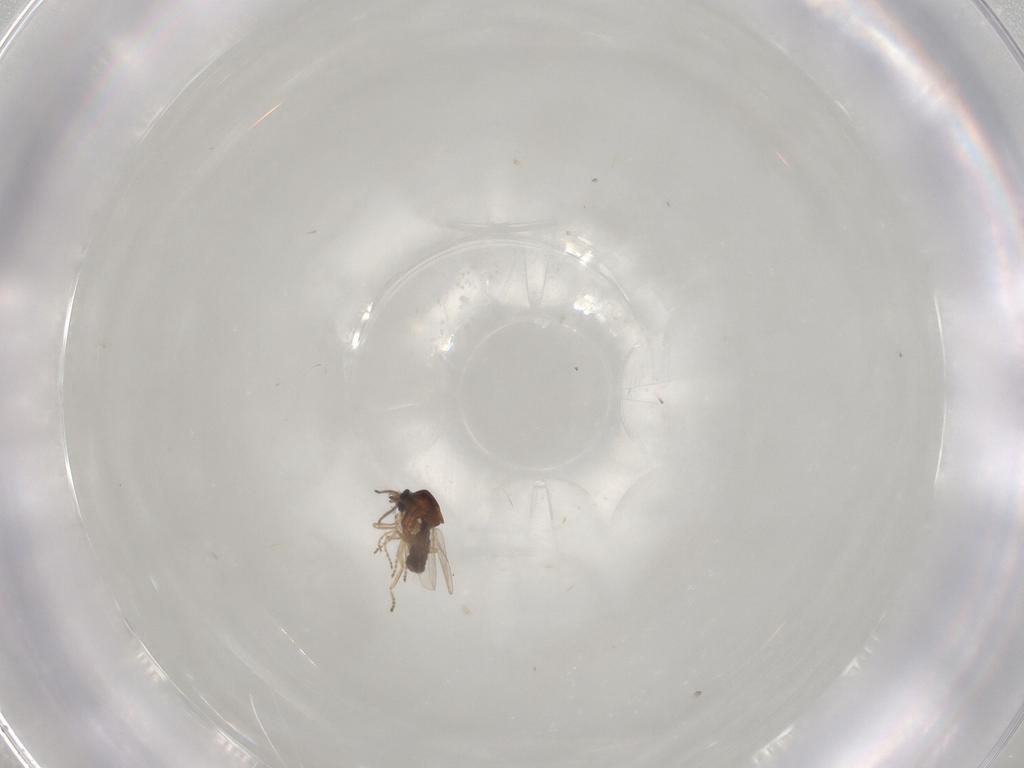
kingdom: Animalia
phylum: Arthropoda
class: Insecta
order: Diptera
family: Ceratopogonidae
